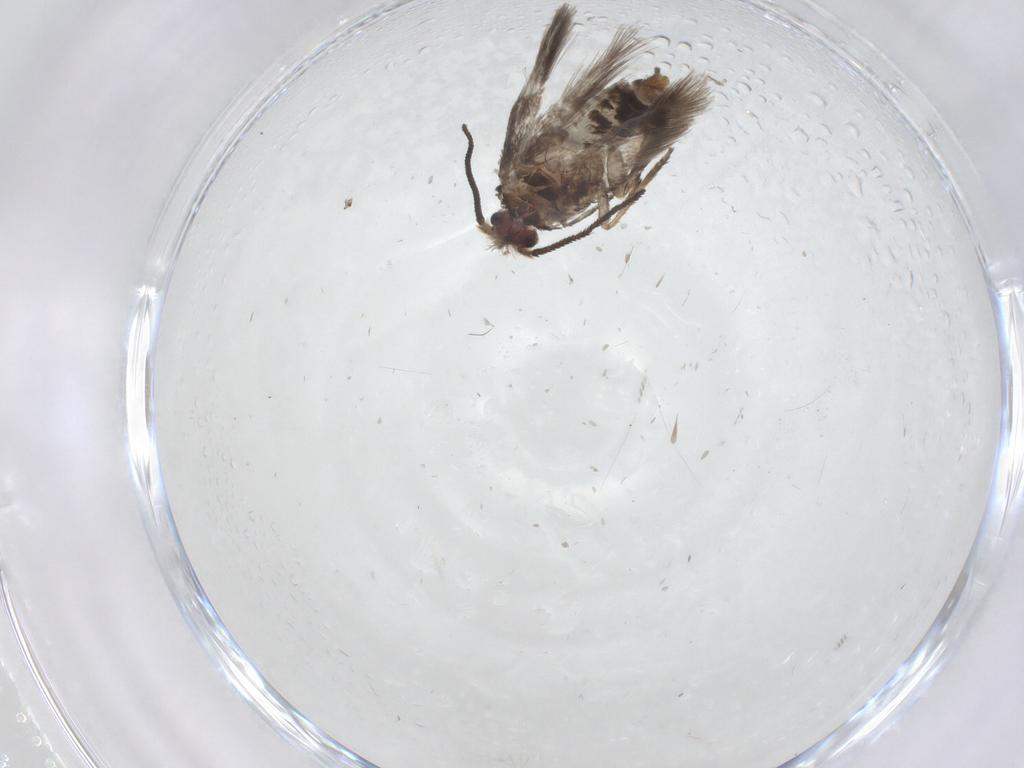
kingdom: Animalia
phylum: Arthropoda
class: Insecta
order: Lepidoptera
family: Nepticulidae
